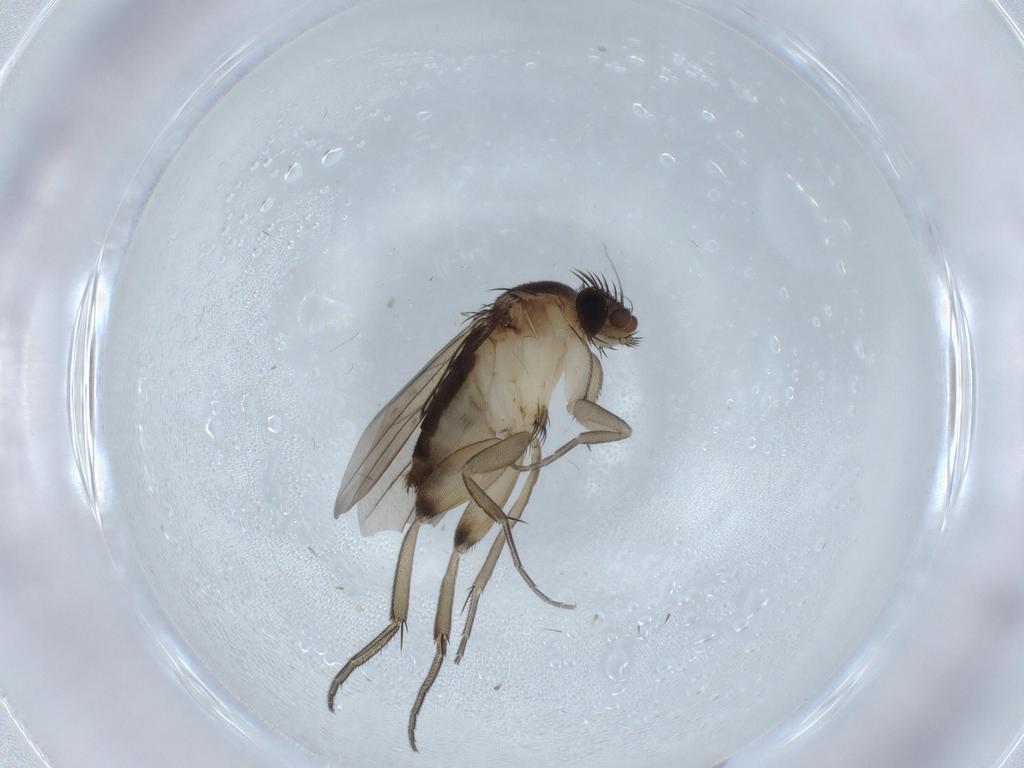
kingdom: Animalia
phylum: Arthropoda
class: Insecta
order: Diptera
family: Phoridae
